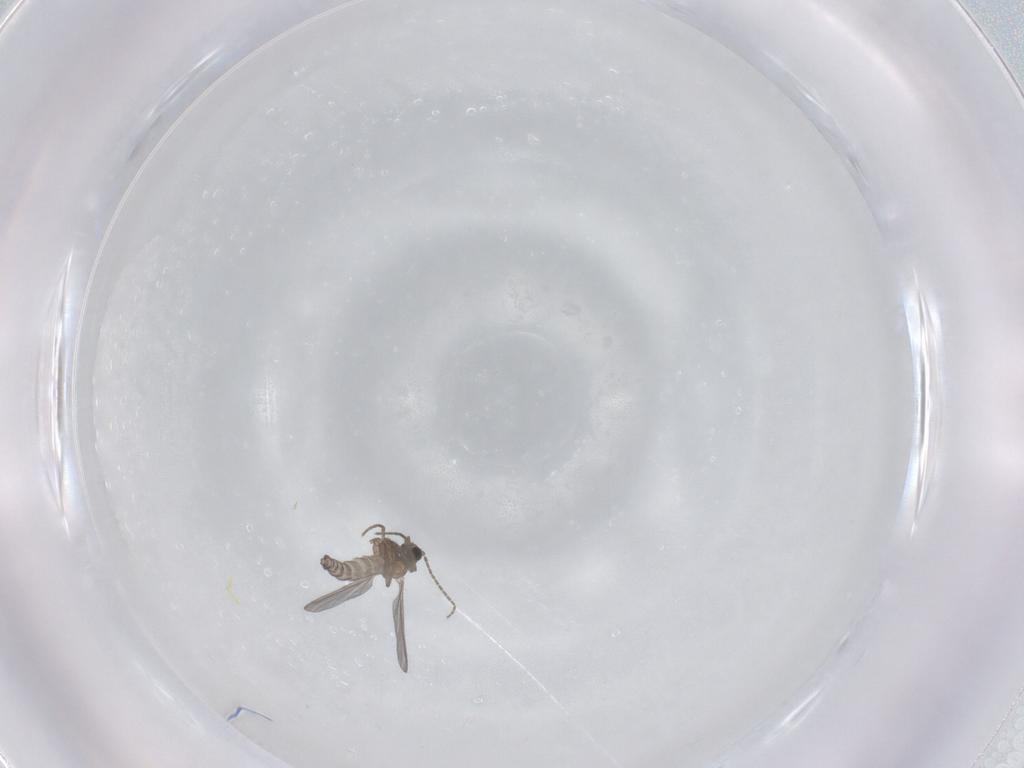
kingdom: Animalia
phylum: Arthropoda
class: Insecta
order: Diptera
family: Sciaridae
